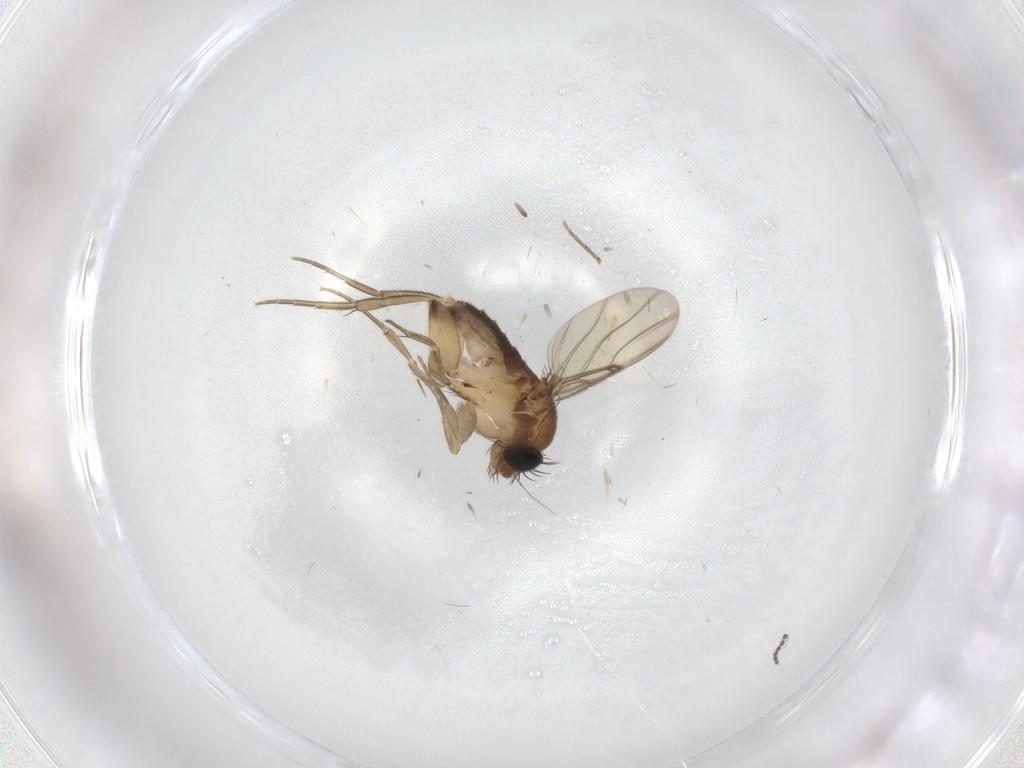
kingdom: Animalia
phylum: Arthropoda
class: Insecta
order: Diptera
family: Phoridae
